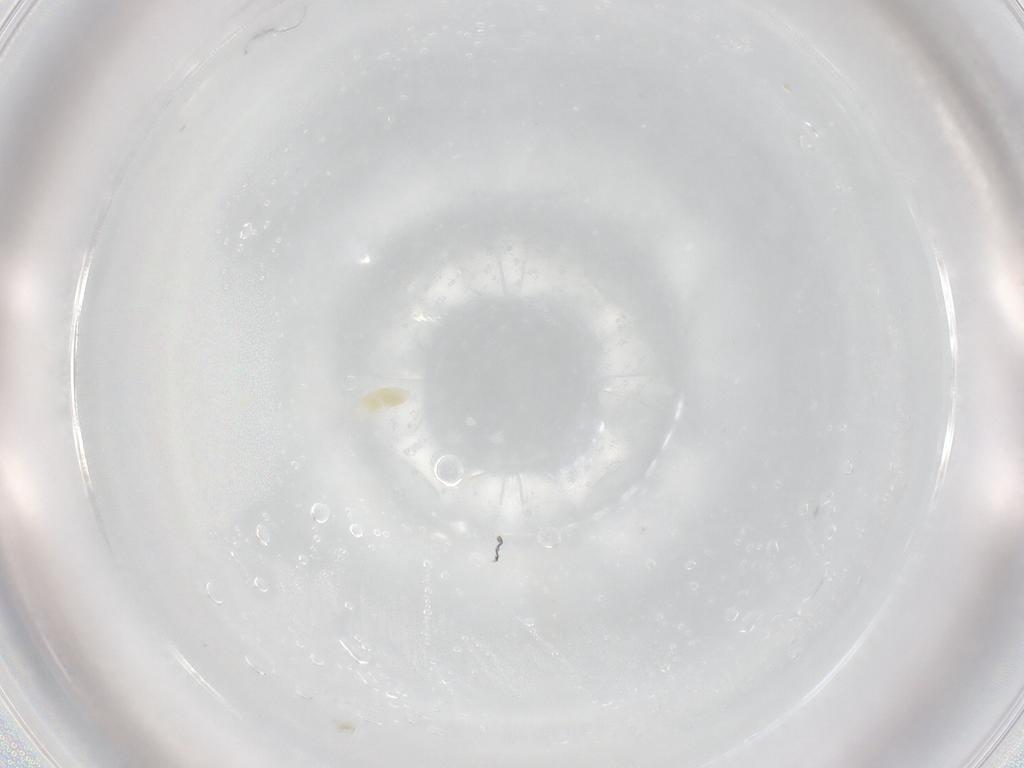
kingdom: Animalia
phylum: Arthropoda
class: Arachnida
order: Trombidiformes
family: Eupodidae
